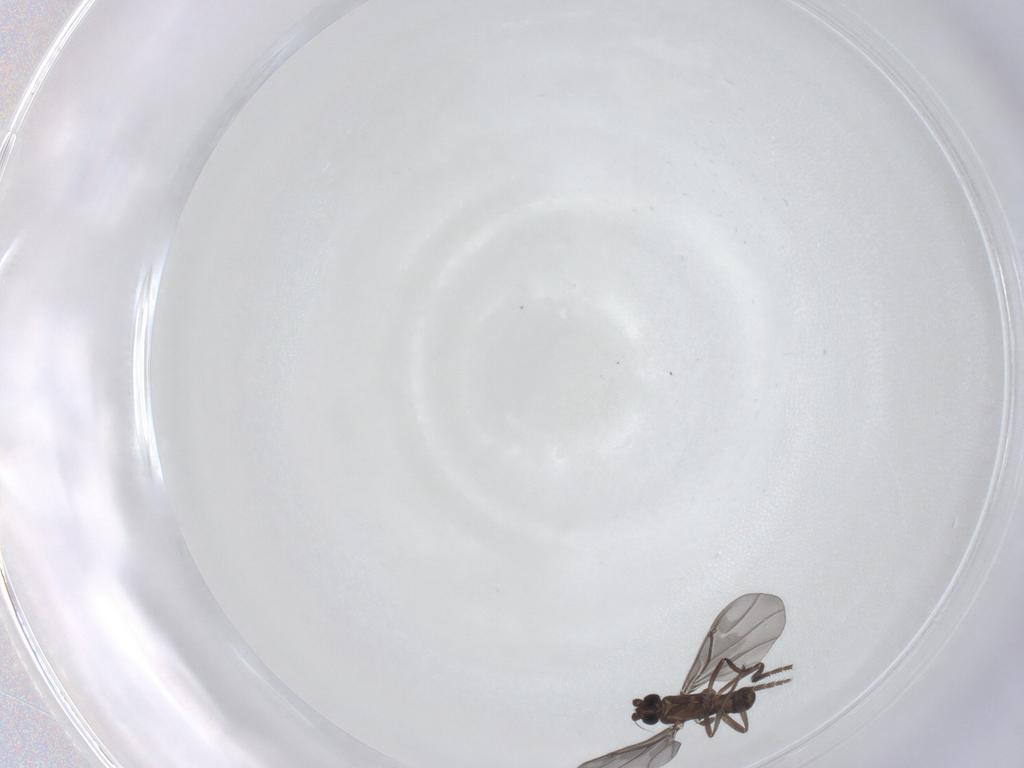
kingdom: Animalia
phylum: Arthropoda
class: Insecta
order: Diptera
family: Phoridae
